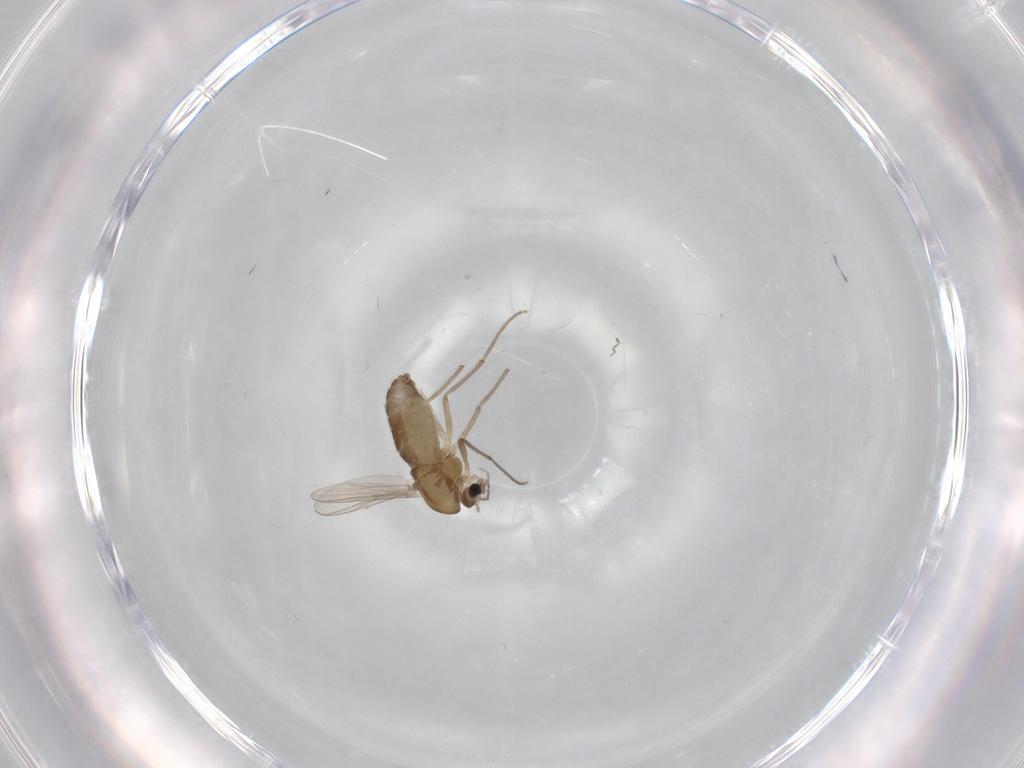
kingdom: Animalia
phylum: Arthropoda
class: Insecta
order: Diptera
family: Chironomidae
